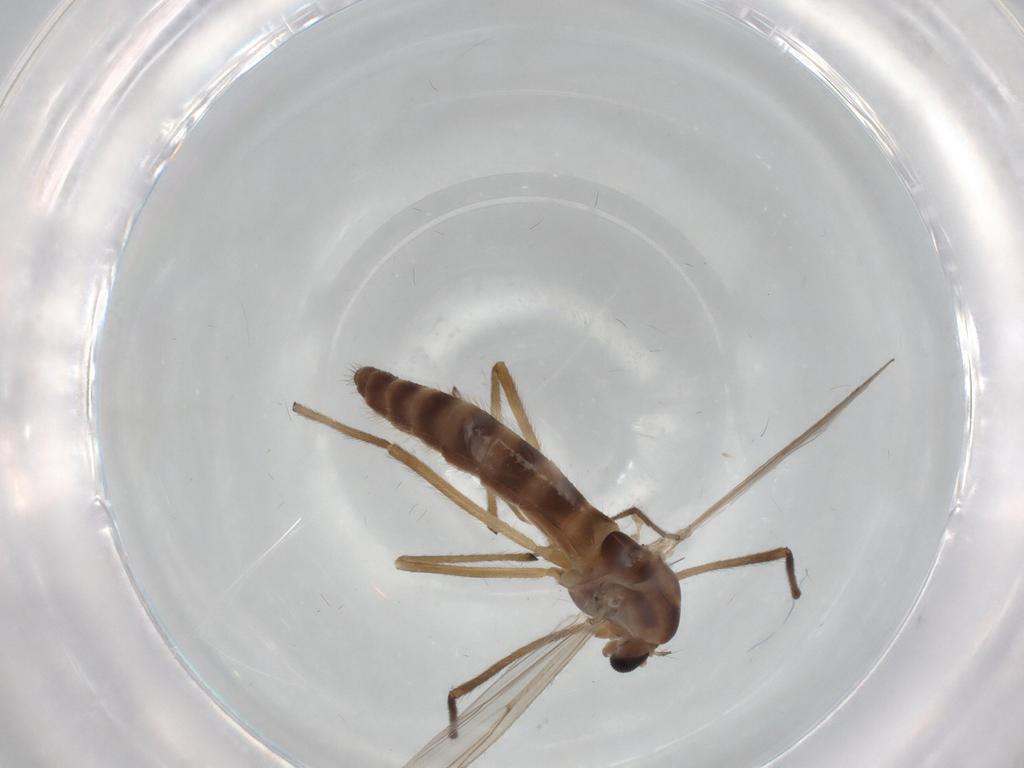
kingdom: Animalia
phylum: Arthropoda
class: Insecta
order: Diptera
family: Chironomidae
